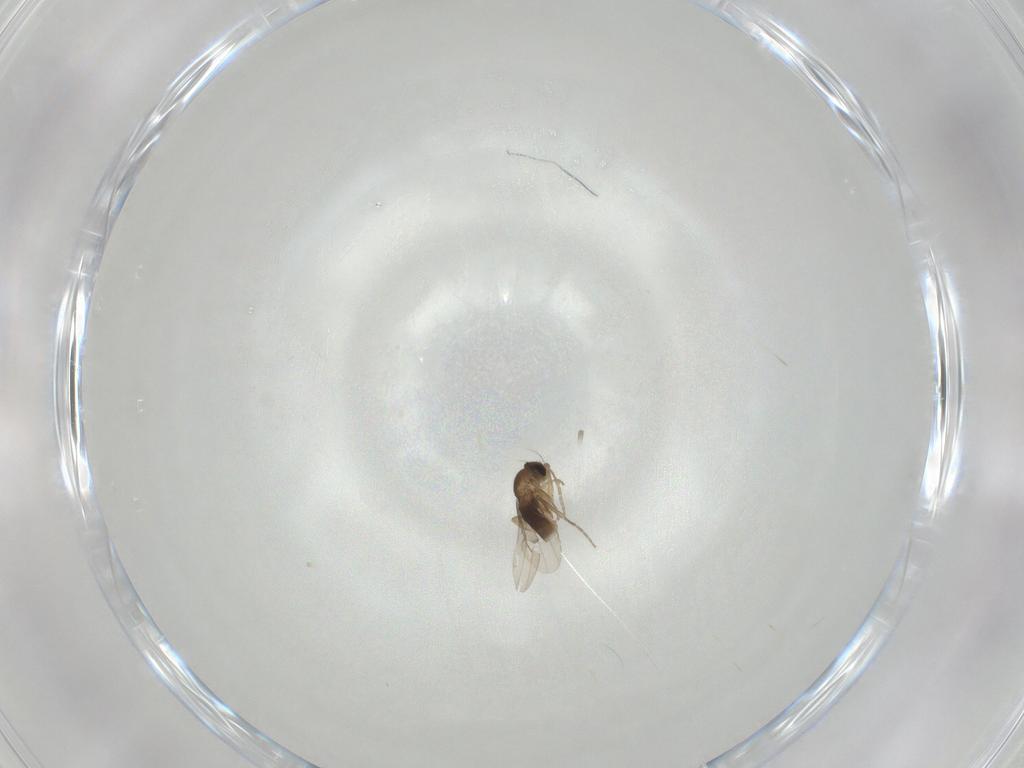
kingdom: Animalia
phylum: Arthropoda
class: Insecta
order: Diptera
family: Phoridae
